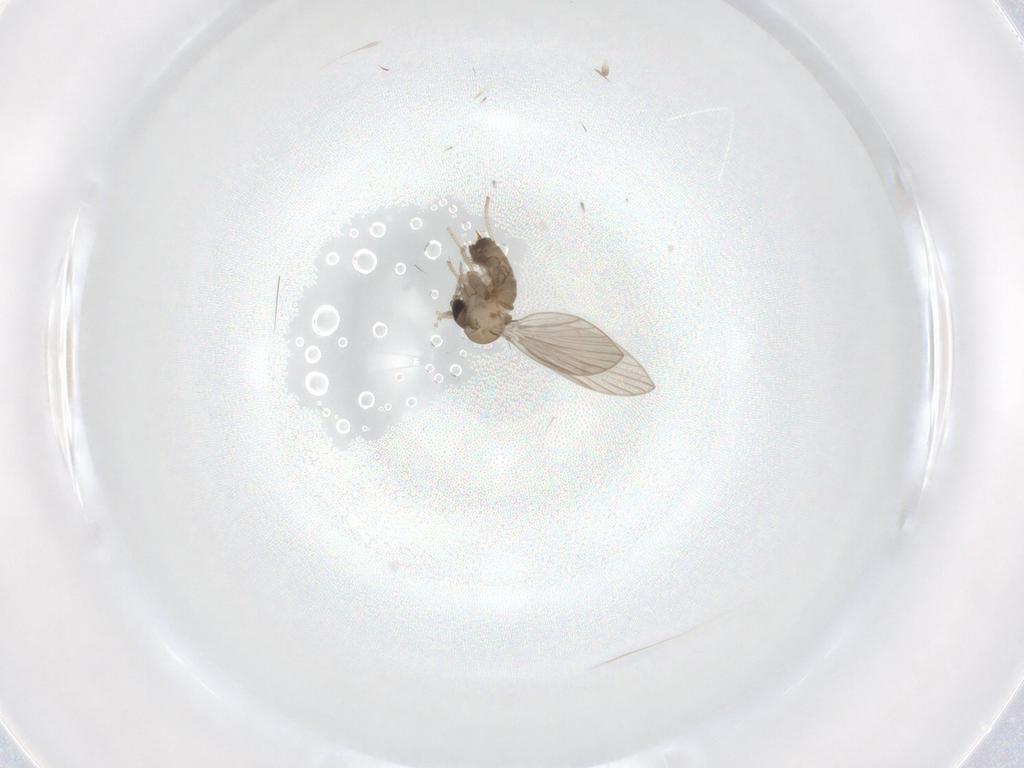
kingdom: Animalia
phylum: Arthropoda
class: Insecta
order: Diptera
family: Psychodidae
